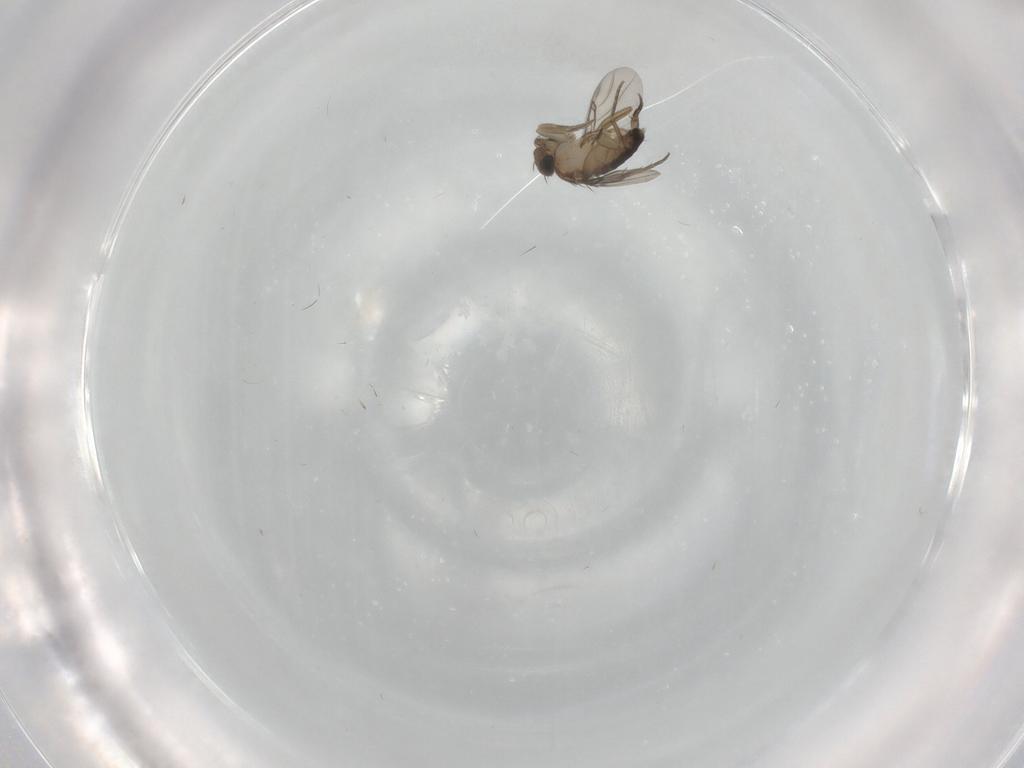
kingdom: Animalia
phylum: Arthropoda
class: Insecta
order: Diptera
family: Phoridae
